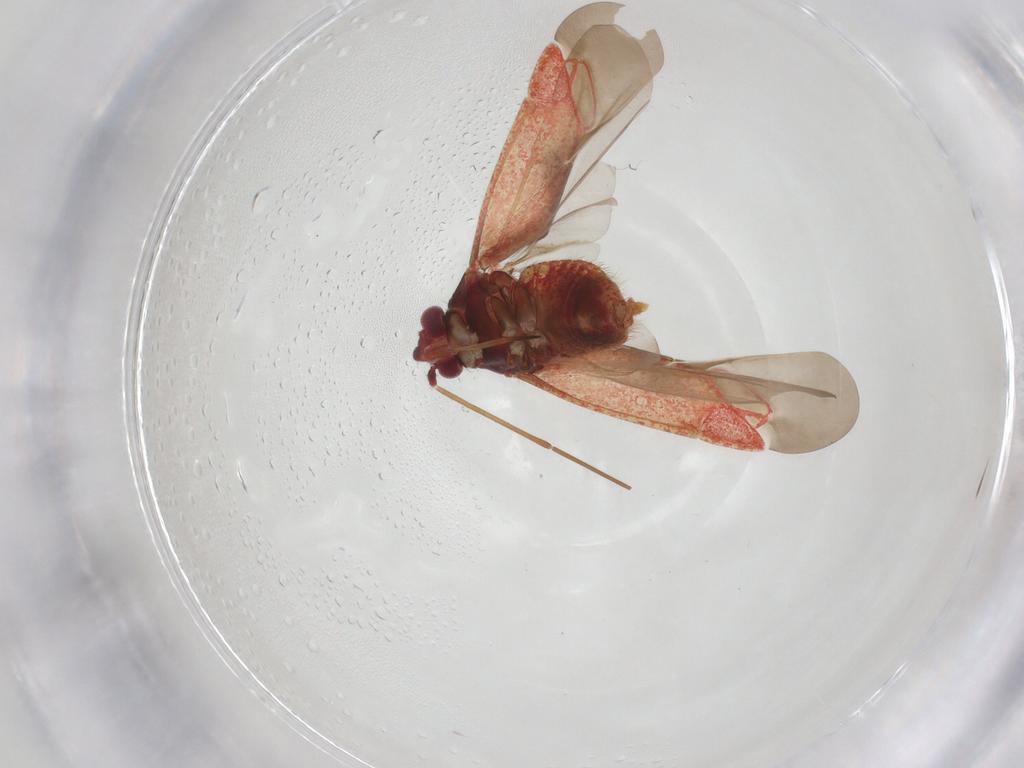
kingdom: Animalia
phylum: Arthropoda
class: Insecta
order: Hemiptera
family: Miridae
